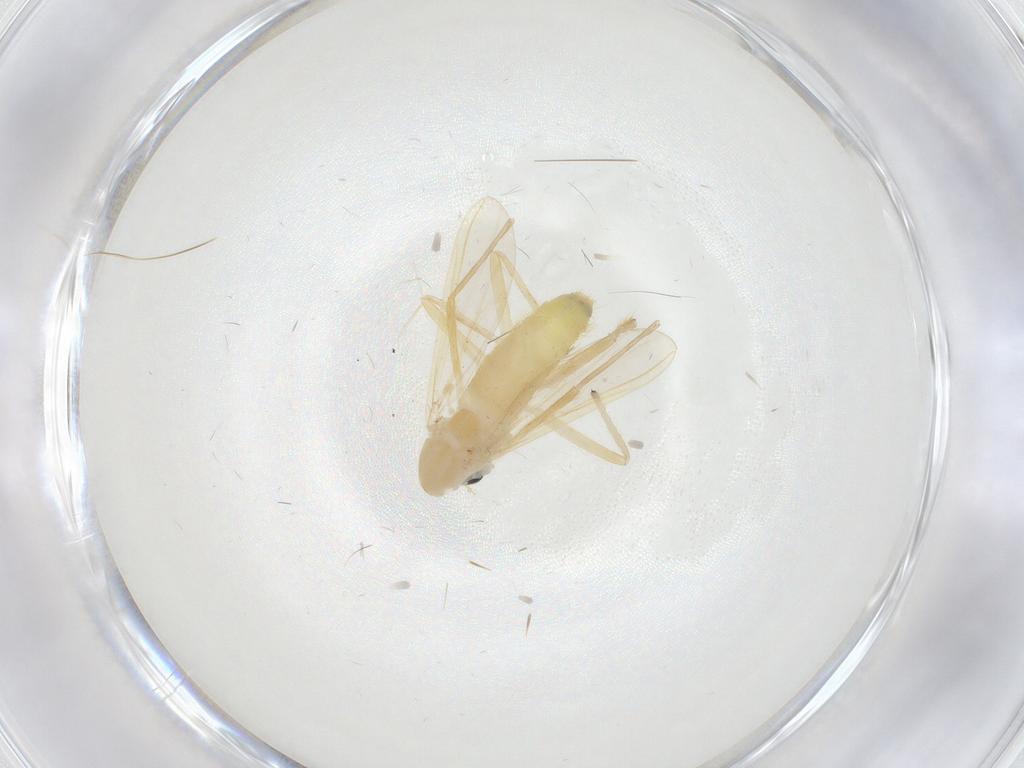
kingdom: Animalia
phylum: Arthropoda
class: Insecta
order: Diptera
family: Chironomidae
